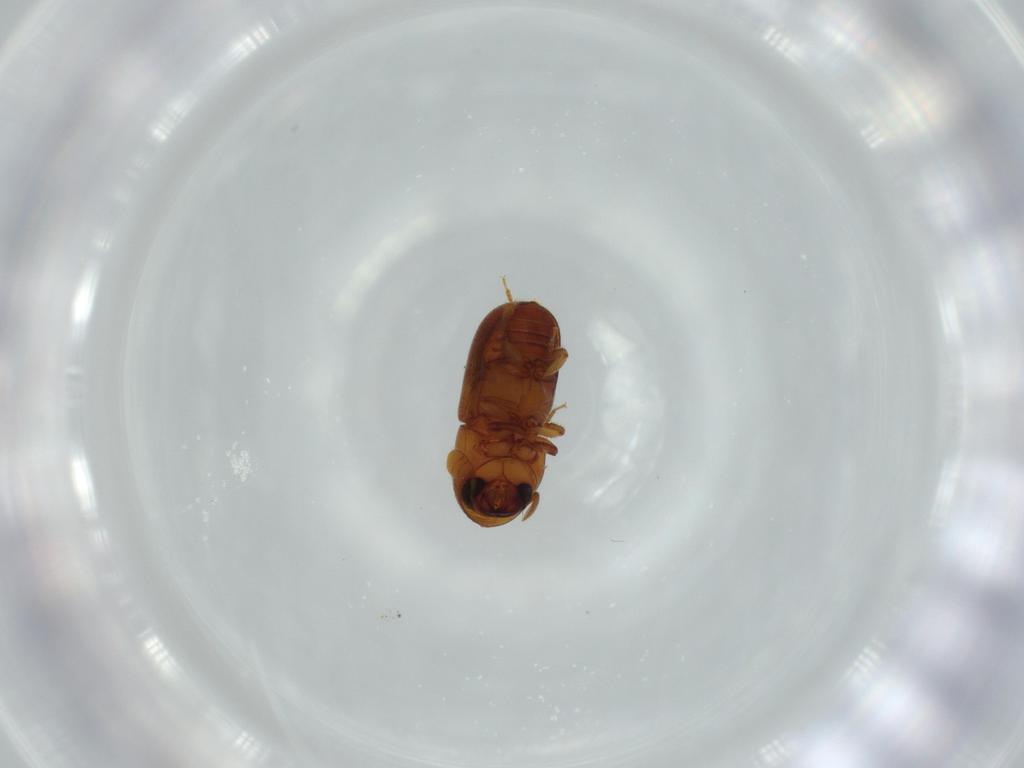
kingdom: Animalia
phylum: Arthropoda
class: Insecta
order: Coleoptera
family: Curculionidae
